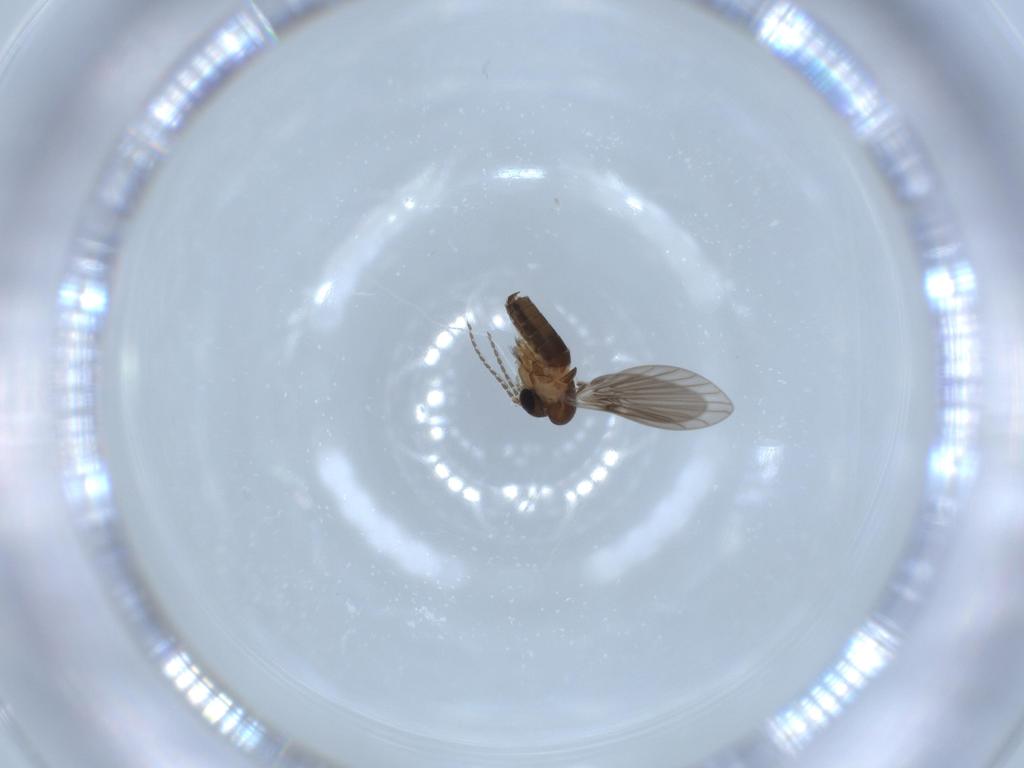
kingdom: Animalia
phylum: Arthropoda
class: Insecta
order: Diptera
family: Psychodidae
